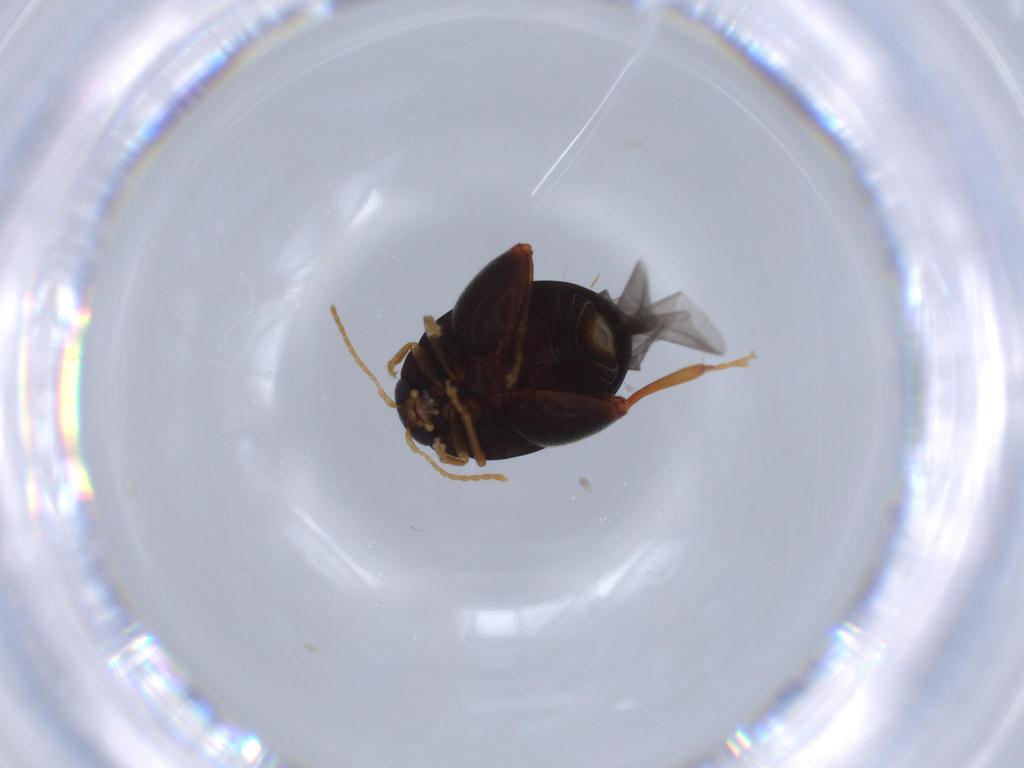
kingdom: Animalia
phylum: Arthropoda
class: Insecta
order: Coleoptera
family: Chrysomelidae
